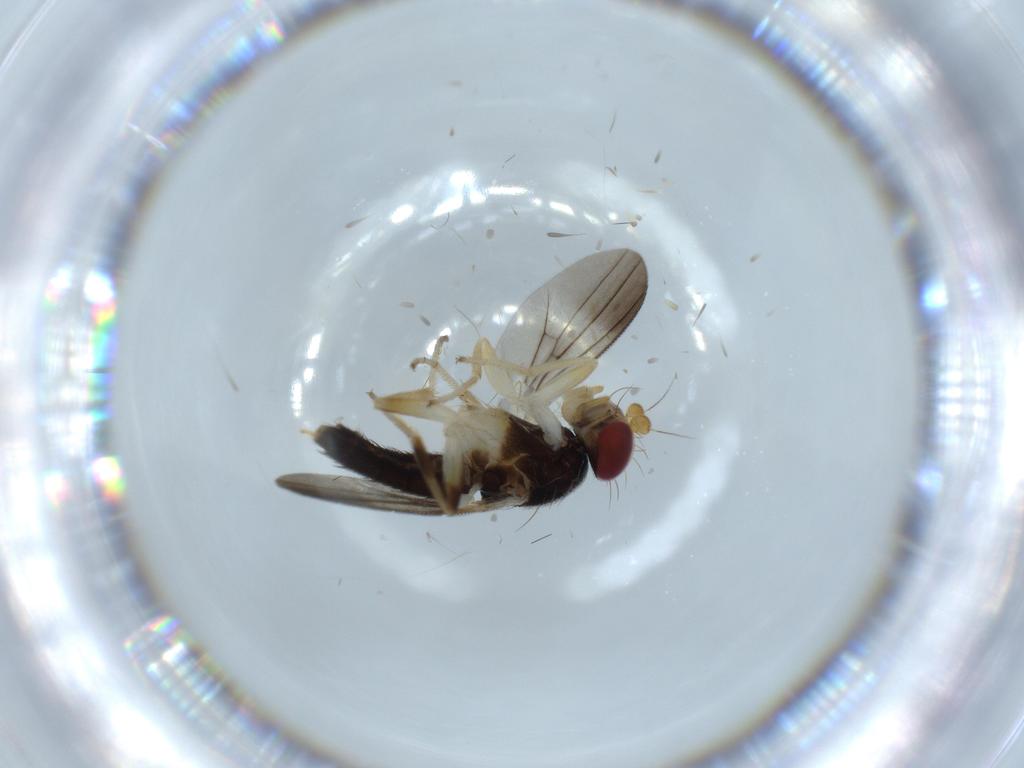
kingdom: Animalia
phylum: Arthropoda
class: Insecta
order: Diptera
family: Clusiidae
